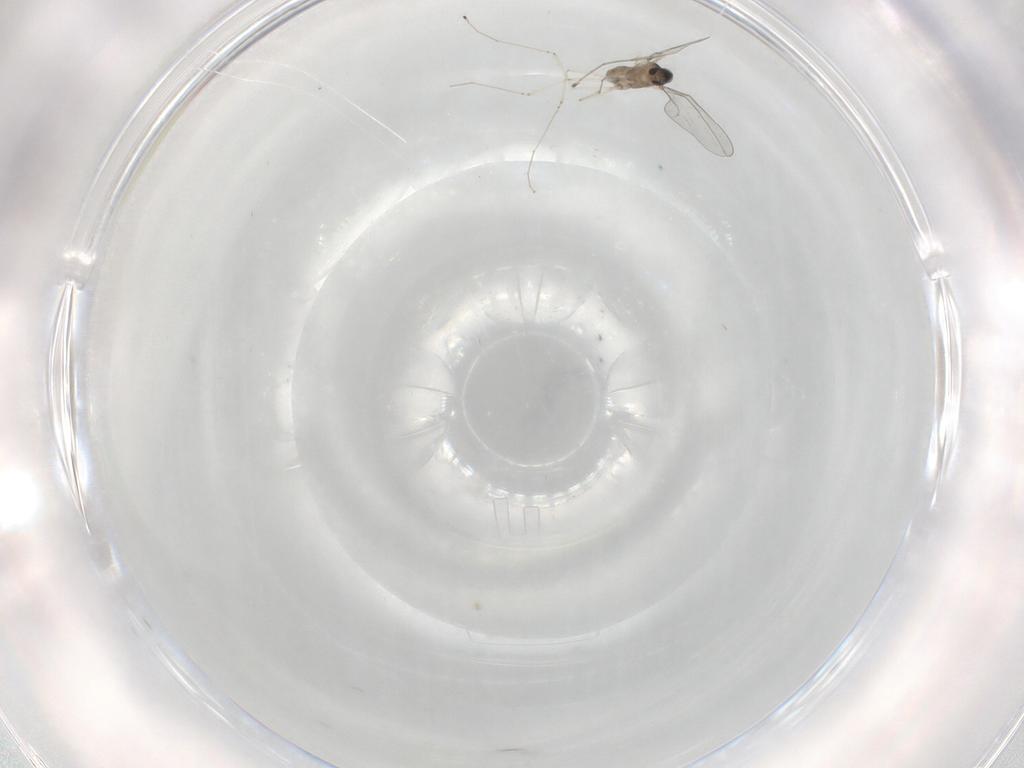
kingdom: Animalia
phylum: Arthropoda
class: Insecta
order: Diptera
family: Cecidomyiidae
